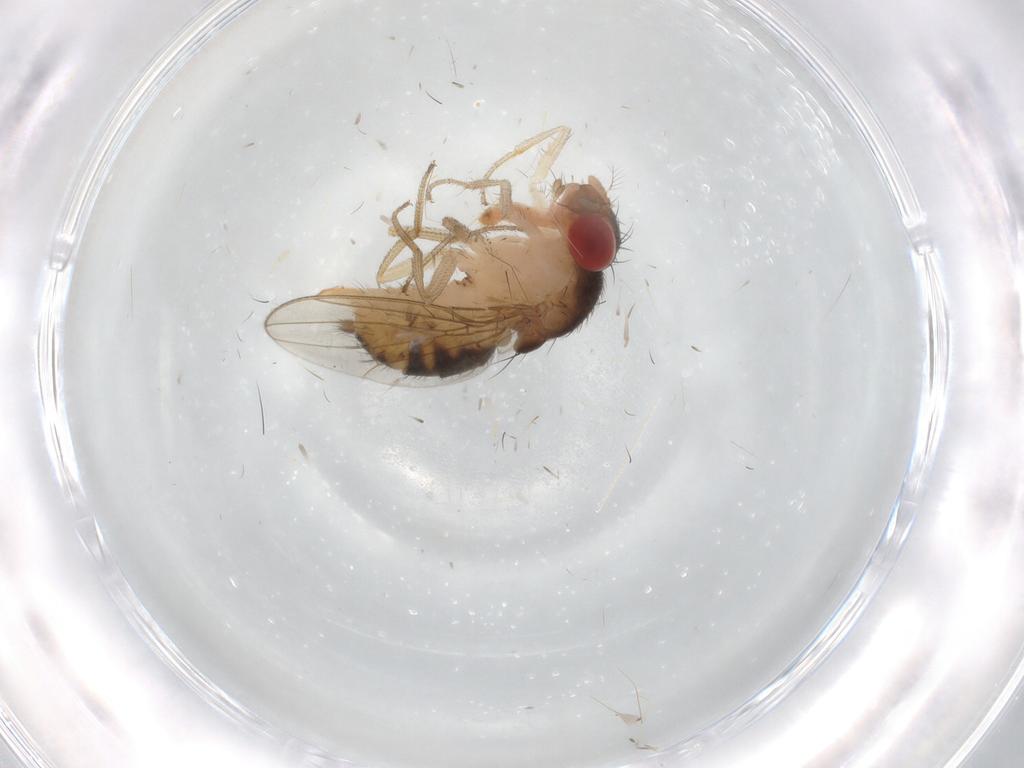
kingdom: Animalia
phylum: Arthropoda
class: Insecta
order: Diptera
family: Drosophilidae
